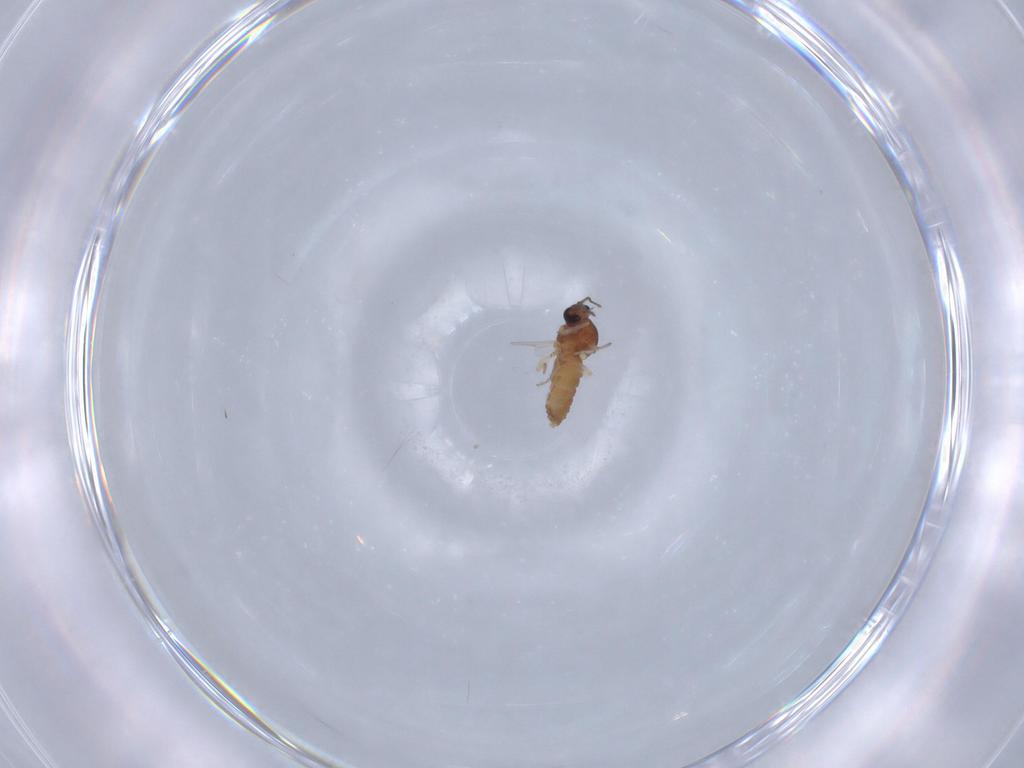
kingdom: Animalia
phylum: Arthropoda
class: Insecta
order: Diptera
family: Ceratopogonidae
